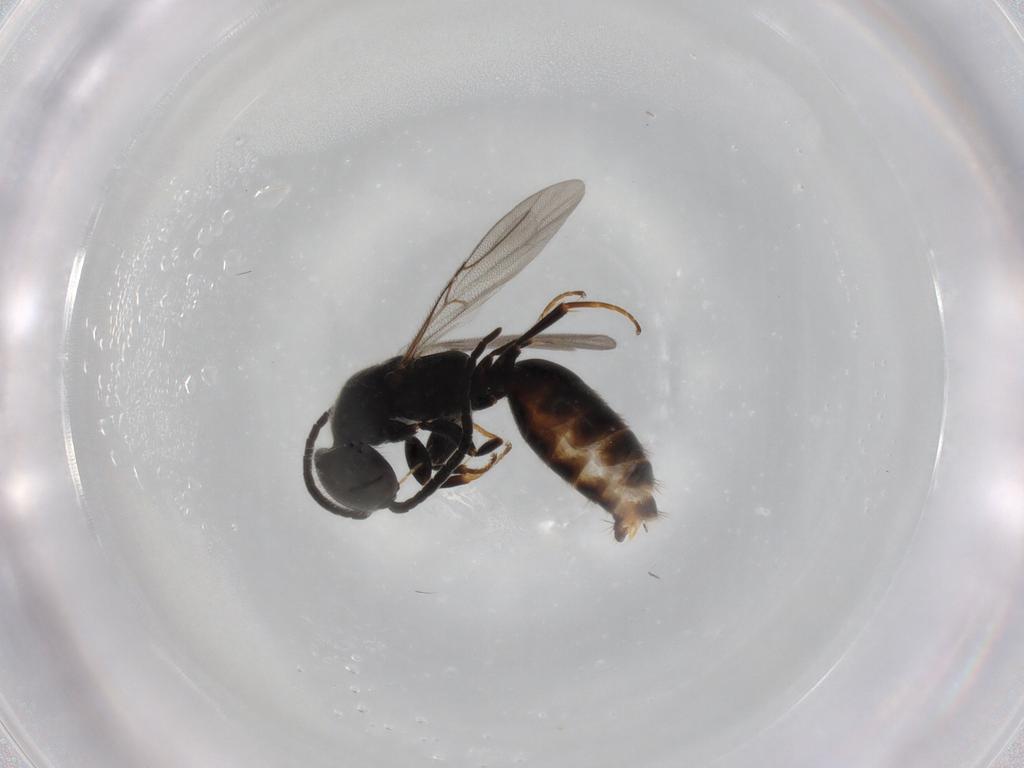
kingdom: Animalia
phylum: Arthropoda
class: Insecta
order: Hymenoptera
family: Bethylidae
